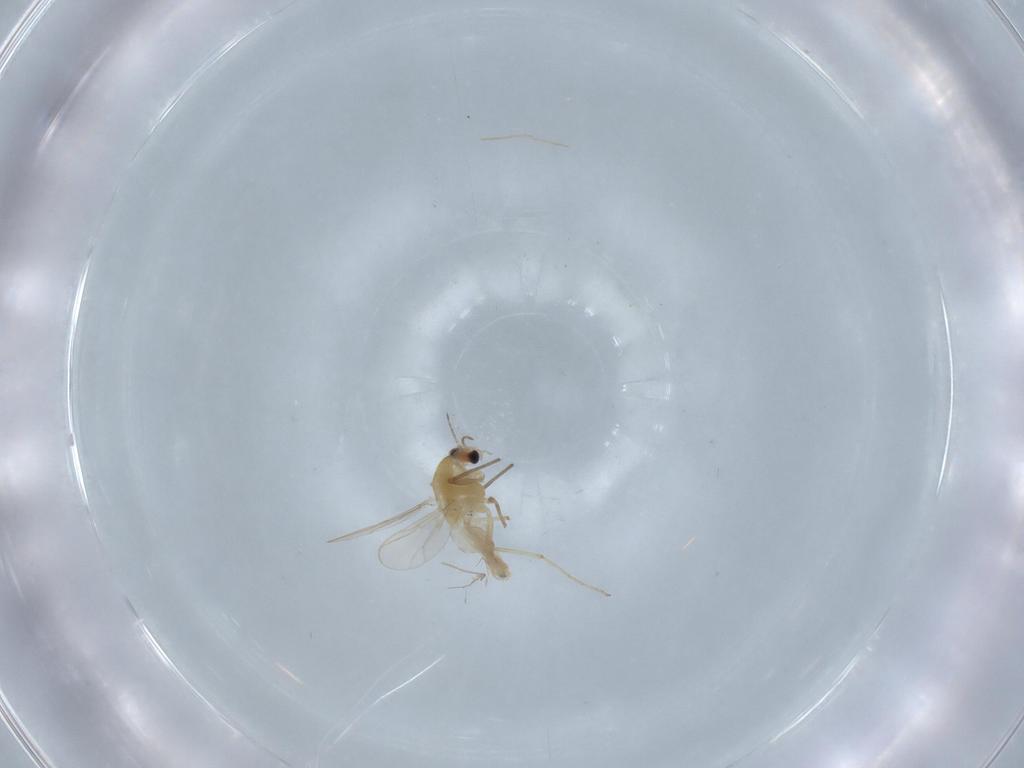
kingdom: Animalia
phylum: Arthropoda
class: Insecta
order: Diptera
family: Chironomidae
